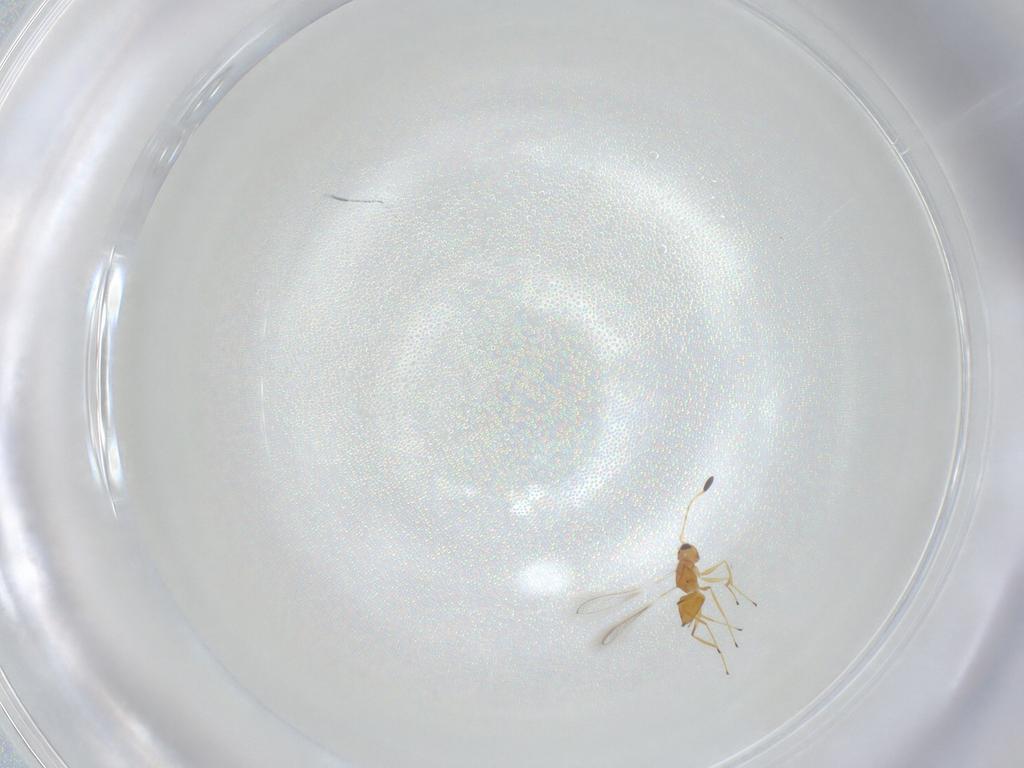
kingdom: Animalia
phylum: Arthropoda
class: Insecta
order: Hymenoptera
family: Mymaridae
